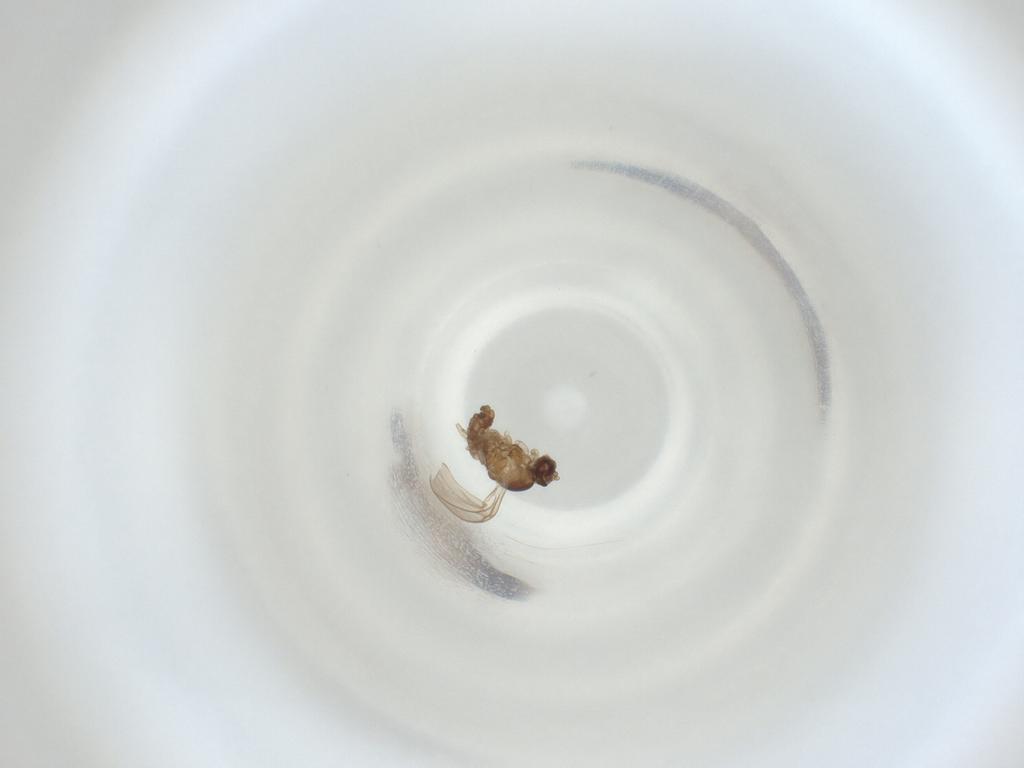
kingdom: Animalia
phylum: Arthropoda
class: Insecta
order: Diptera
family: Cecidomyiidae
